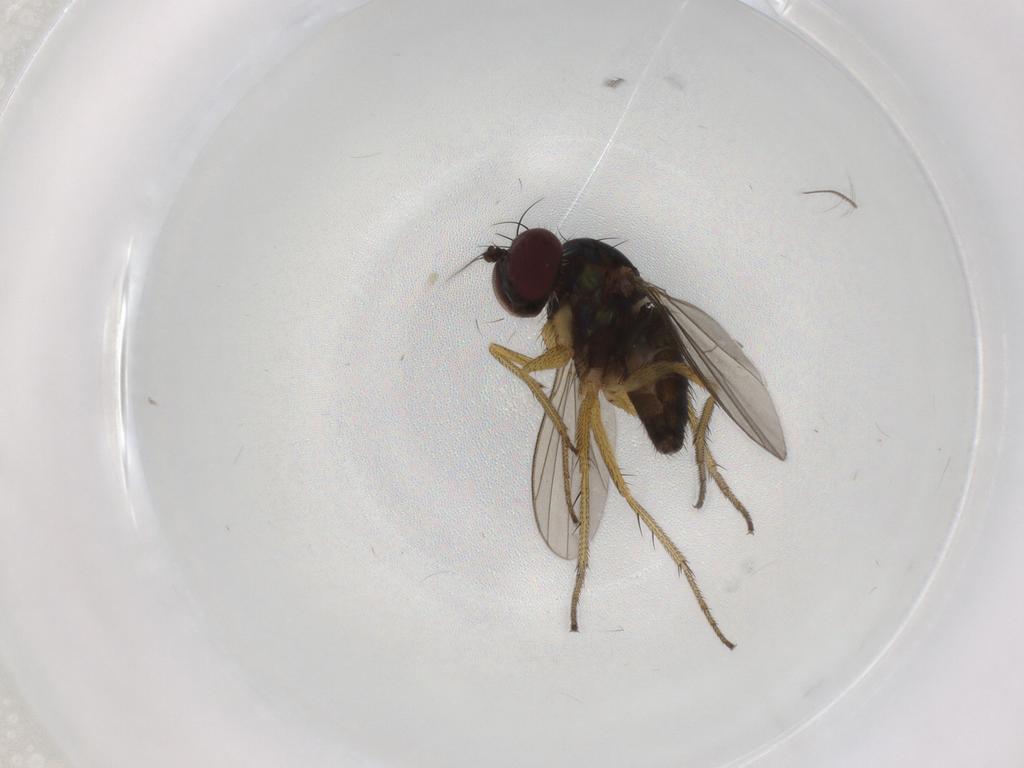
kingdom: Animalia
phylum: Arthropoda
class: Insecta
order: Diptera
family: Dolichopodidae
